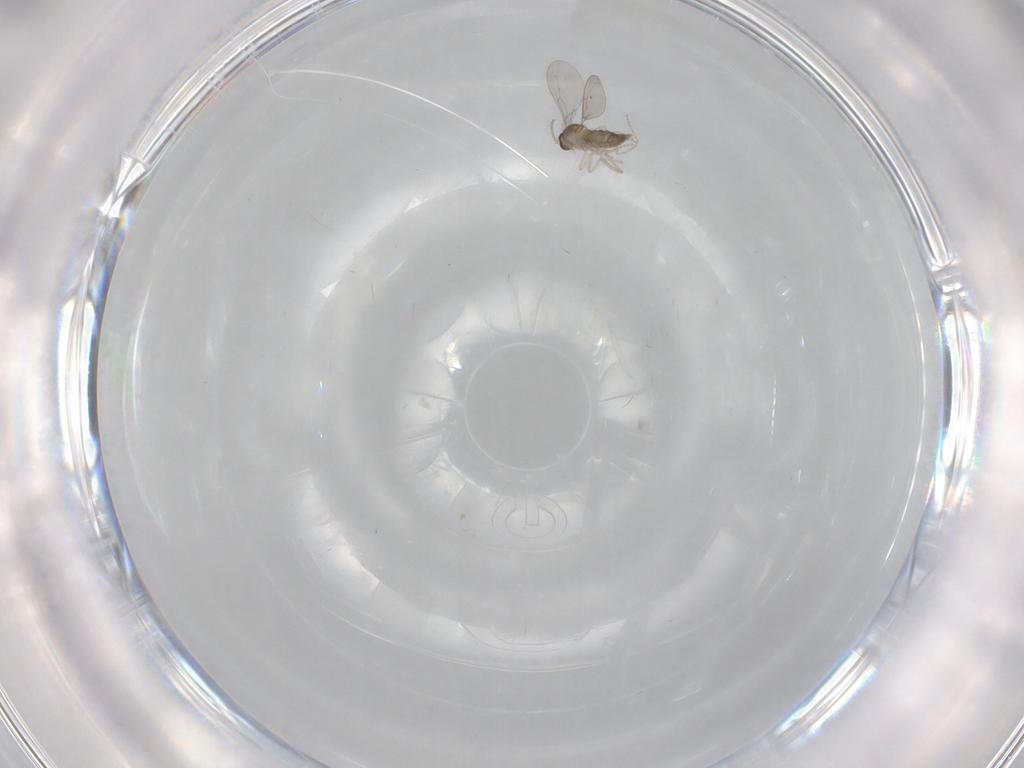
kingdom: Animalia
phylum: Arthropoda
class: Insecta
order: Diptera
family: Cecidomyiidae
